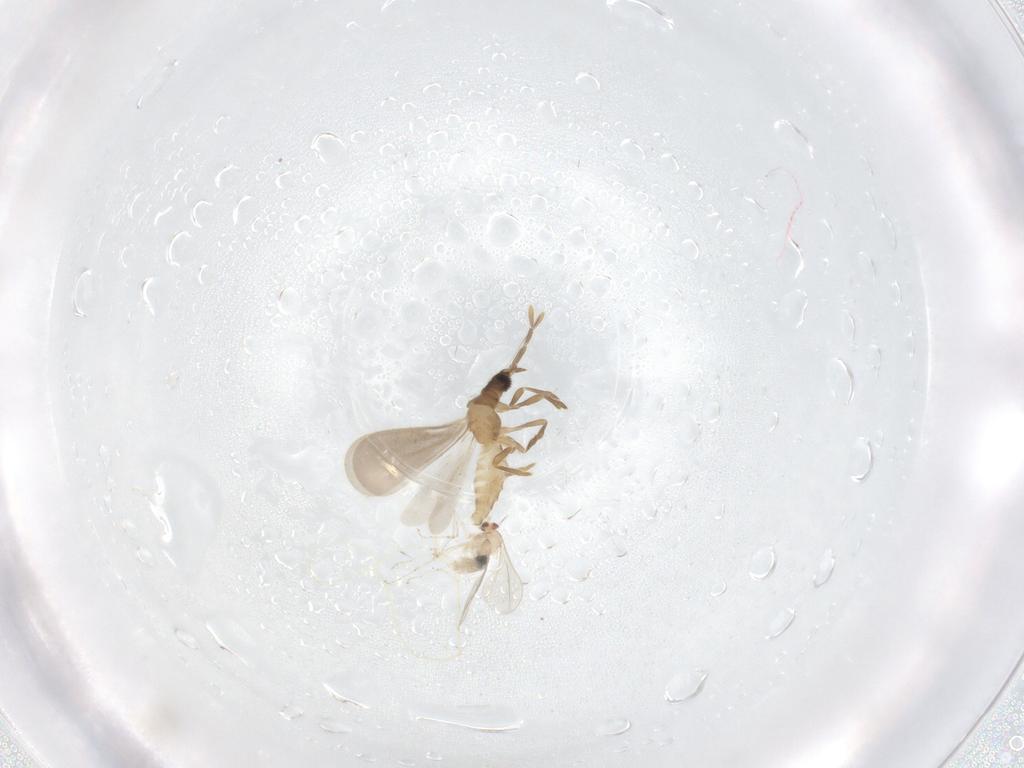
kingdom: Animalia
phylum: Arthropoda
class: Insecta
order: Diptera
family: Cecidomyiidae
